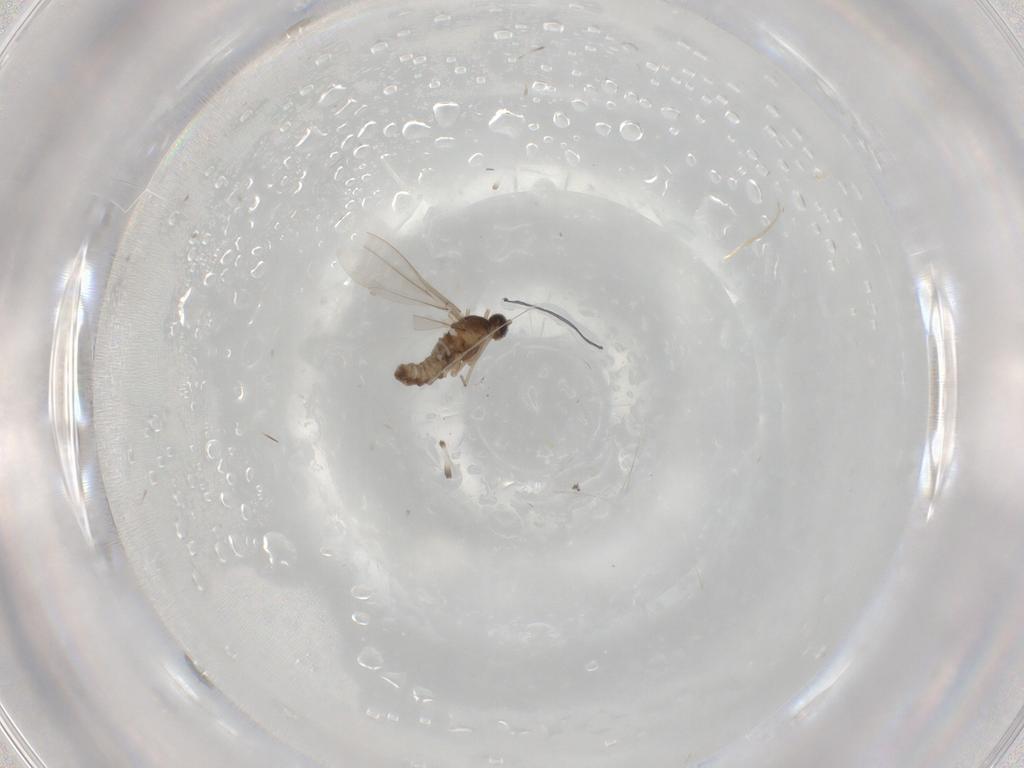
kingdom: Animalia
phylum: Arthropoda
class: Insecta
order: Diptera
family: Cecidomyiidae
